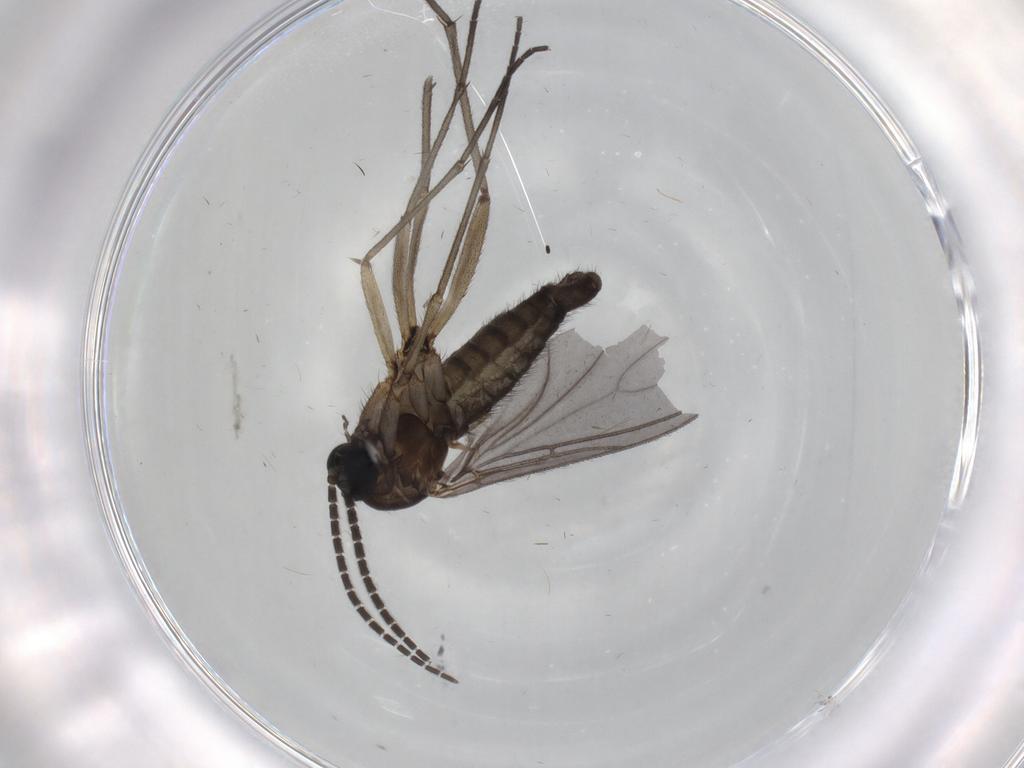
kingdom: Animalia
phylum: Arthropoda
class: Insecta
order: Diptera
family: Sciaridae
